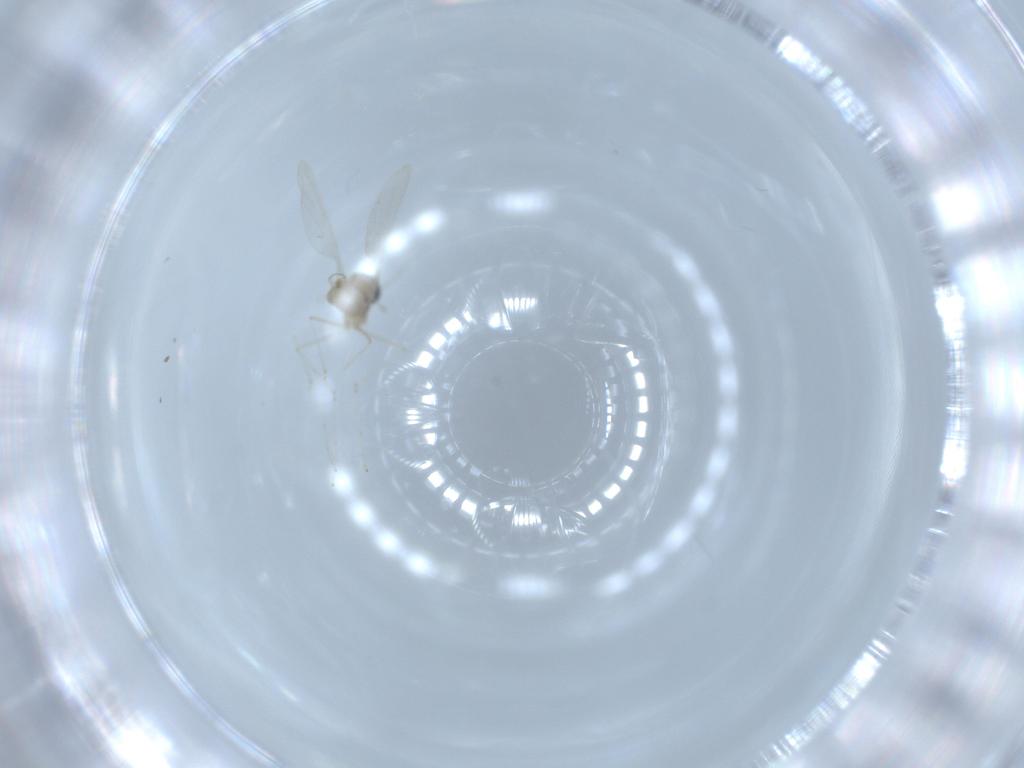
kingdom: Animalia
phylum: Arthropoda
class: Insecta
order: Diptera
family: Cecidomyiidae
